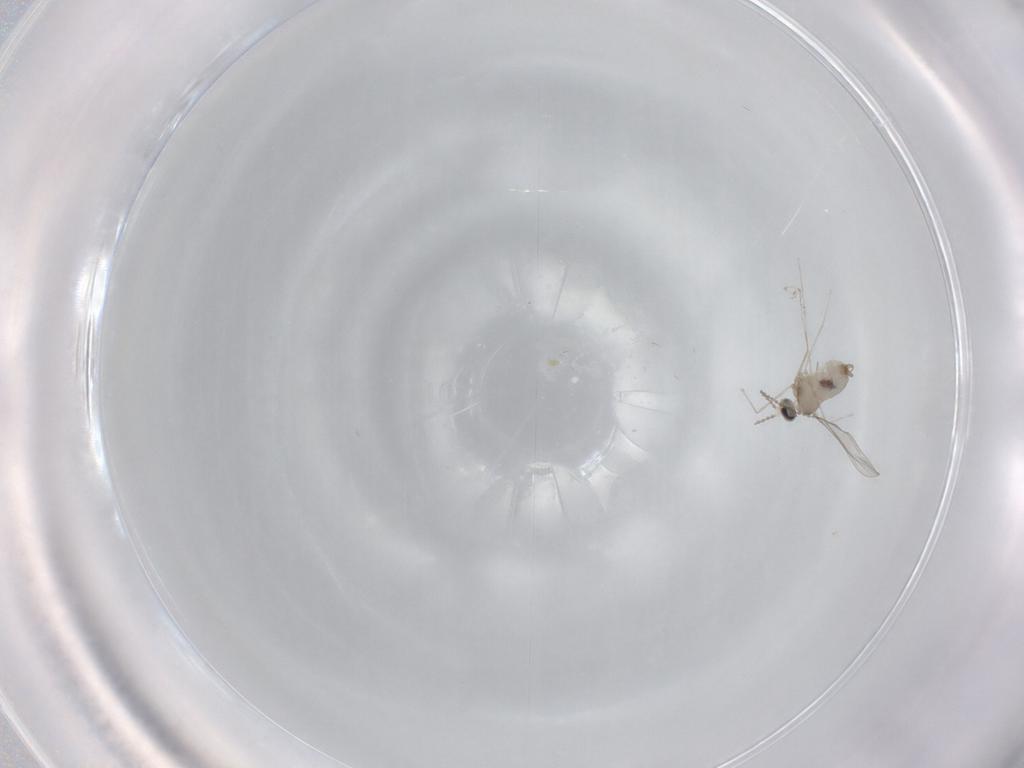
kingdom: Animalia
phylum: Arthropoda
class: Insecta
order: Diptera
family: Cecidomyiidae
